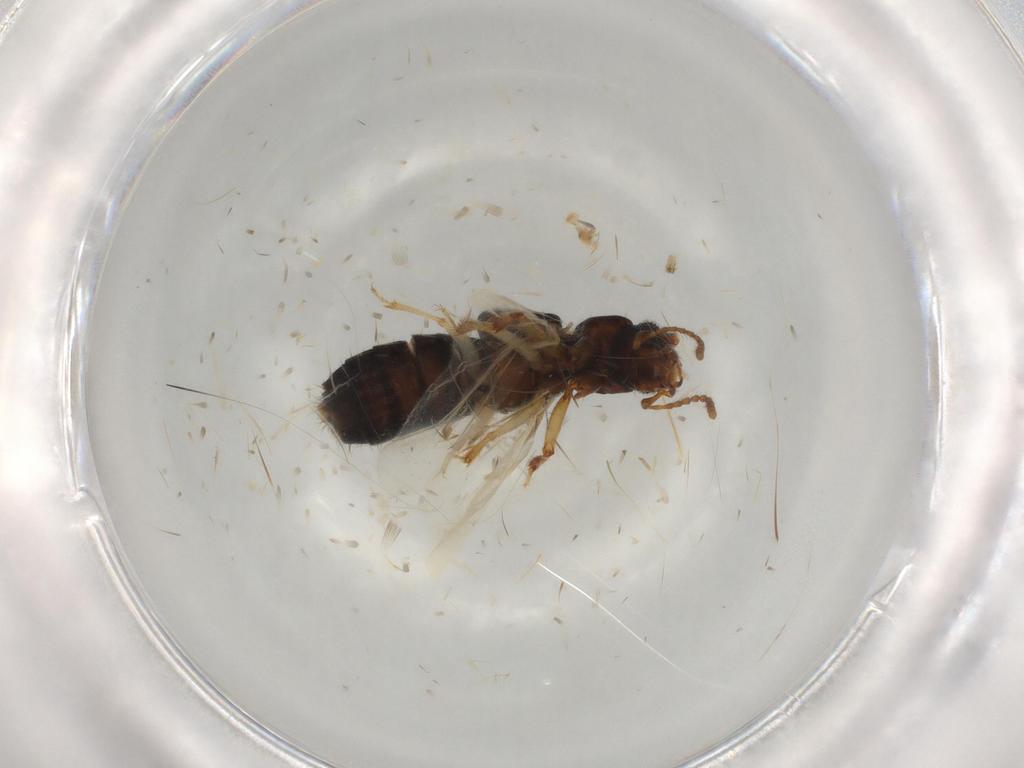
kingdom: Animalia
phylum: Arthropoda
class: Insecta
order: Coleoptera
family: Staphylinidae
